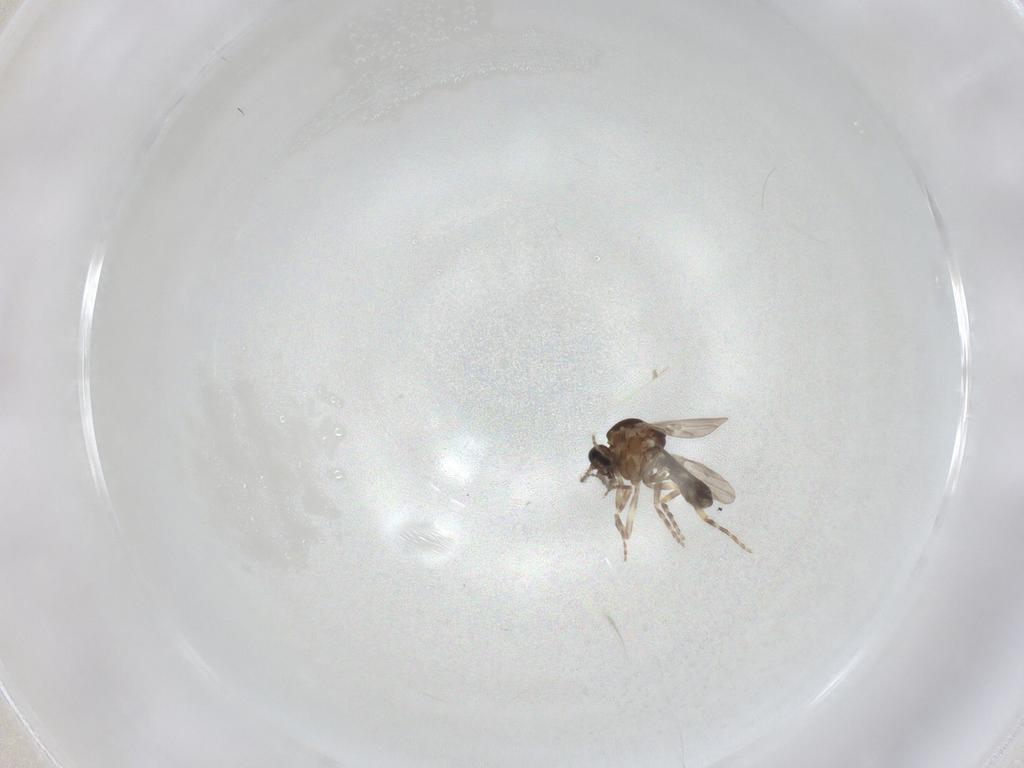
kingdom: Animalia
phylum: Arthropoda
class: Insecta
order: Diptera
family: Ceratopogonidae
